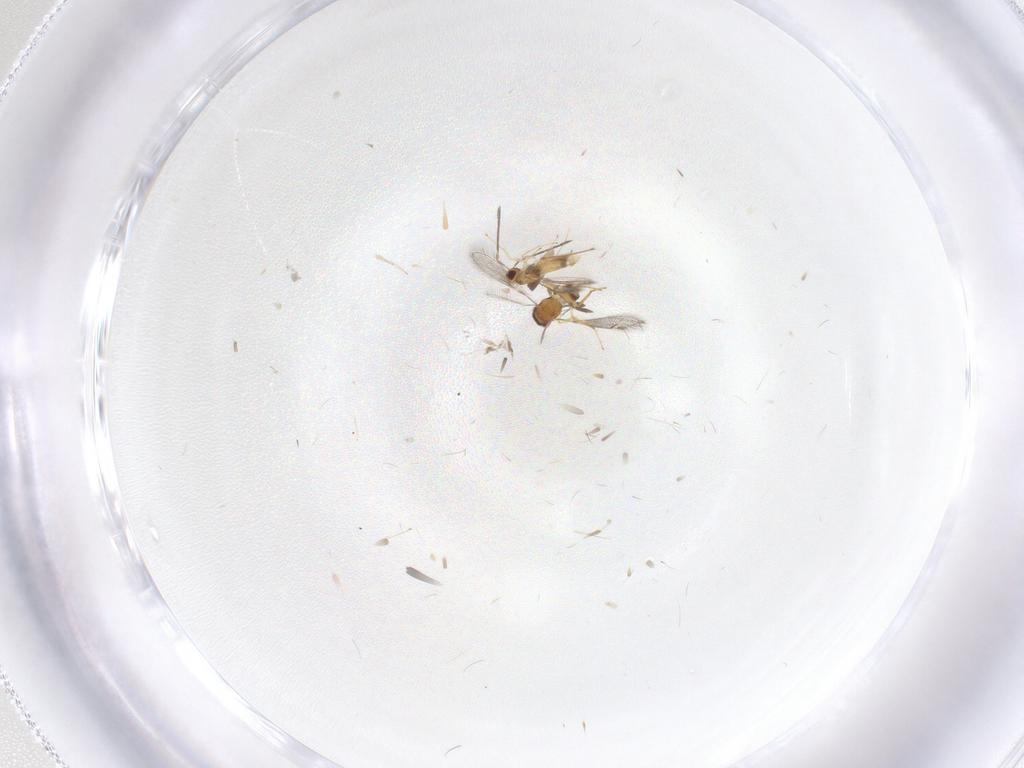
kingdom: Animalia
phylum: Arthropoda
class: Insecta
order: Hymenoptera
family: Mymaridae
